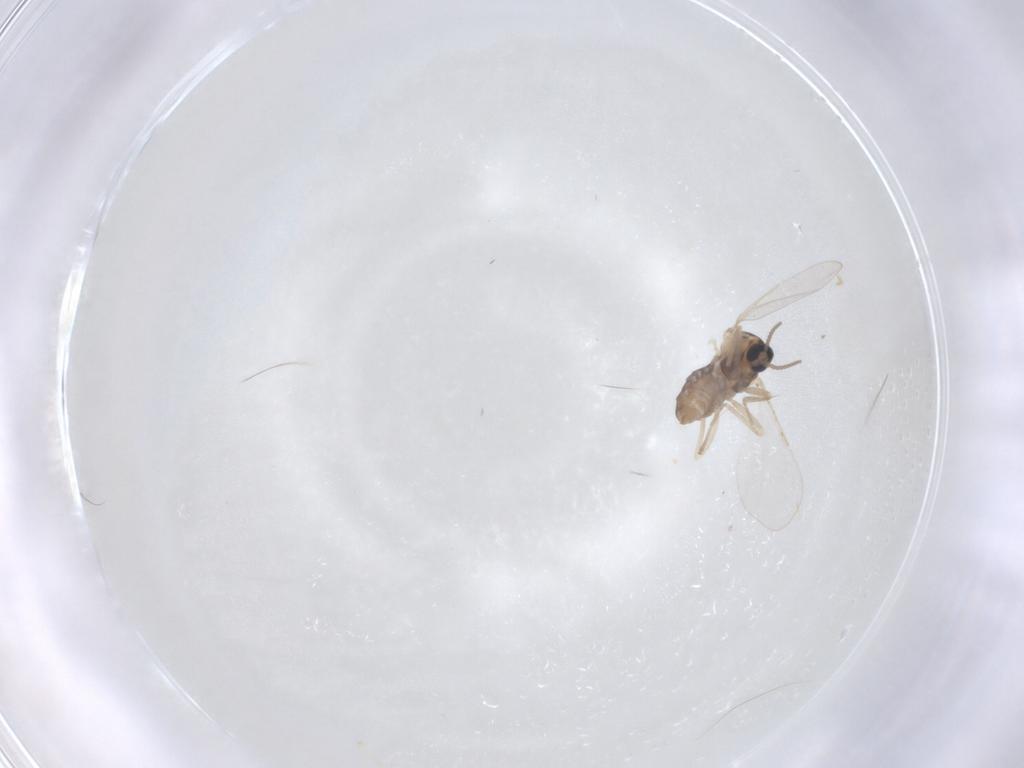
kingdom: Animalia
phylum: Arthropoda
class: Insecta
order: Diptera
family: Cecidomyiidae
